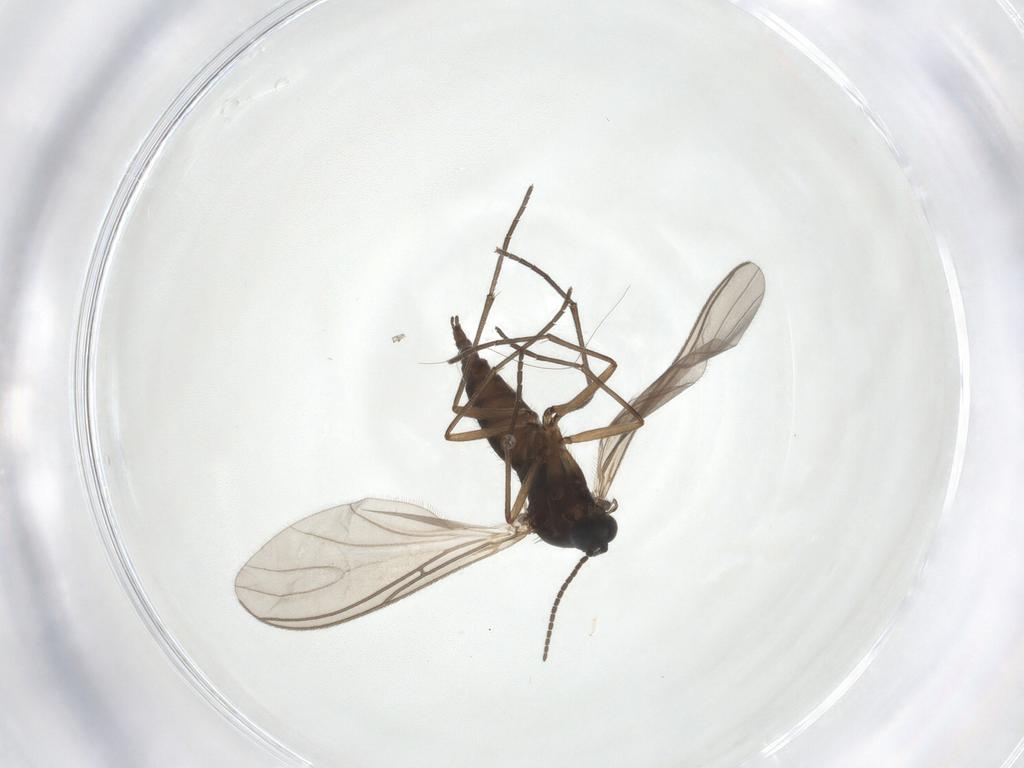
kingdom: Animalia
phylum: Arthropoda
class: Insecta
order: Diptera
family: Sciaridae
